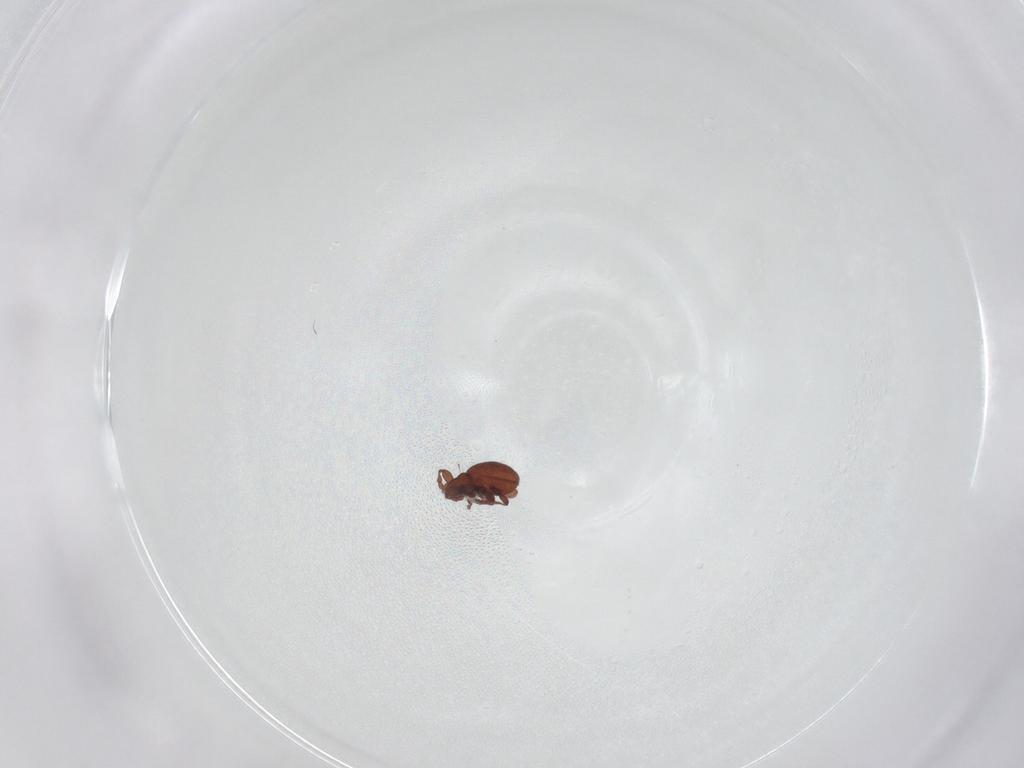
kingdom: Animalia
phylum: Arthropoda
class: Arachnida
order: Sarcoptiformes
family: Eremaeidae
